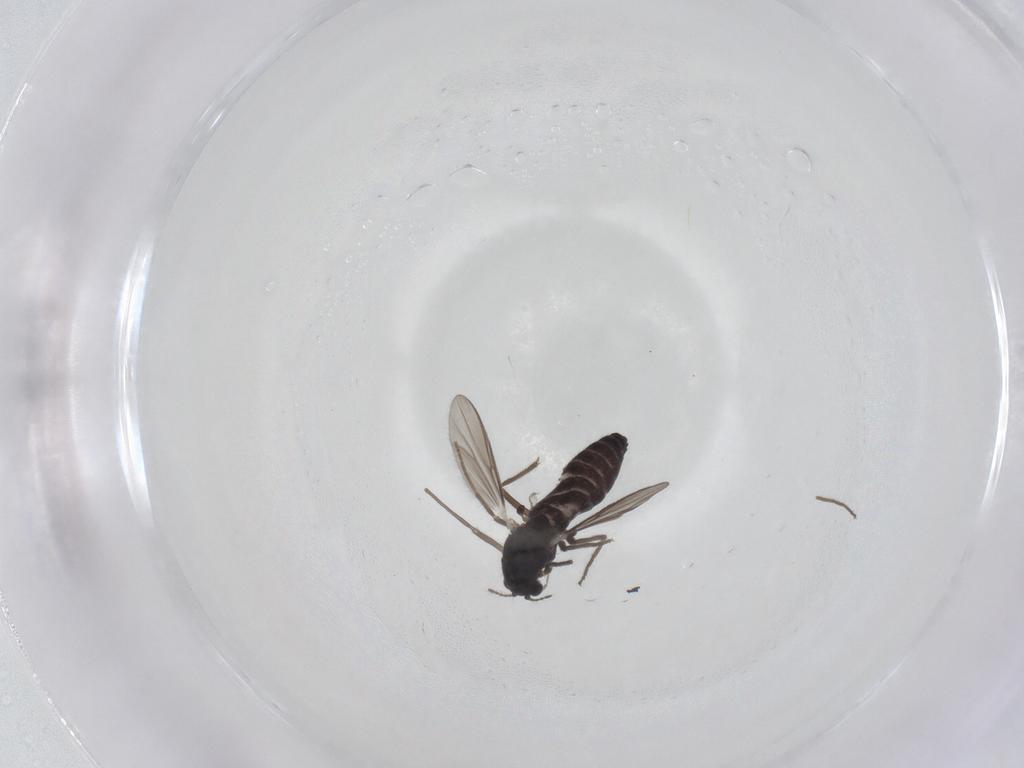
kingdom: Animalia
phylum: Arthropoda
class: Insecta
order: Diptera
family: Chironomidae
